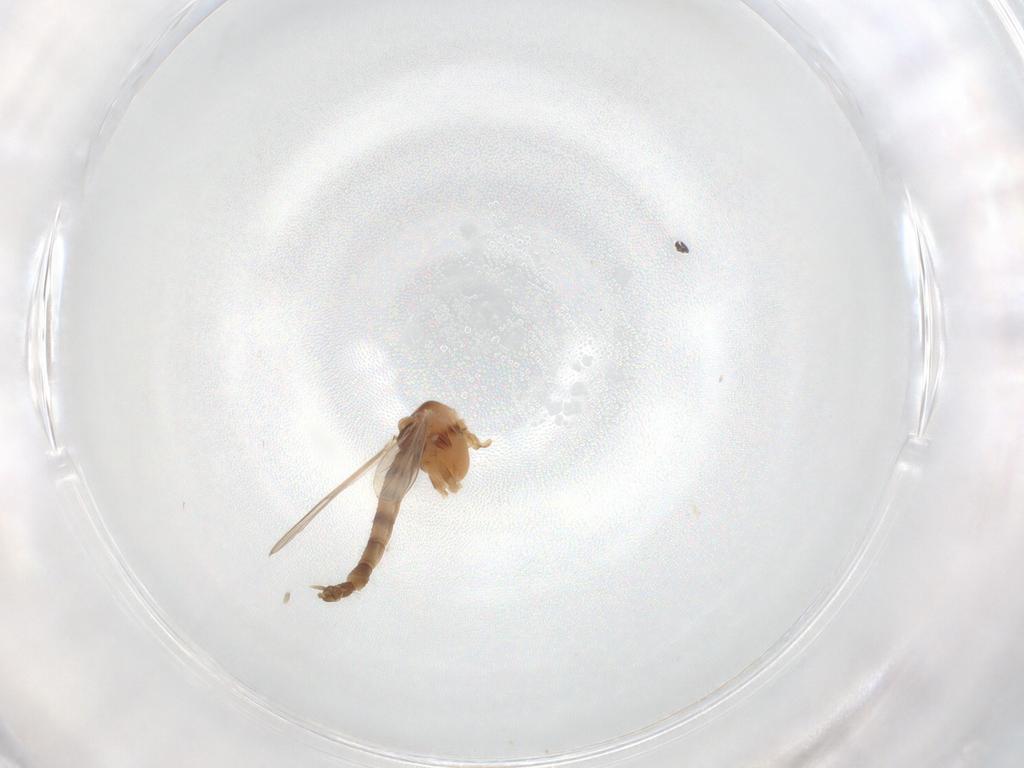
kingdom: Animalia
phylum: Arthropoda
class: Insecta
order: Diptera
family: Chironomidae
